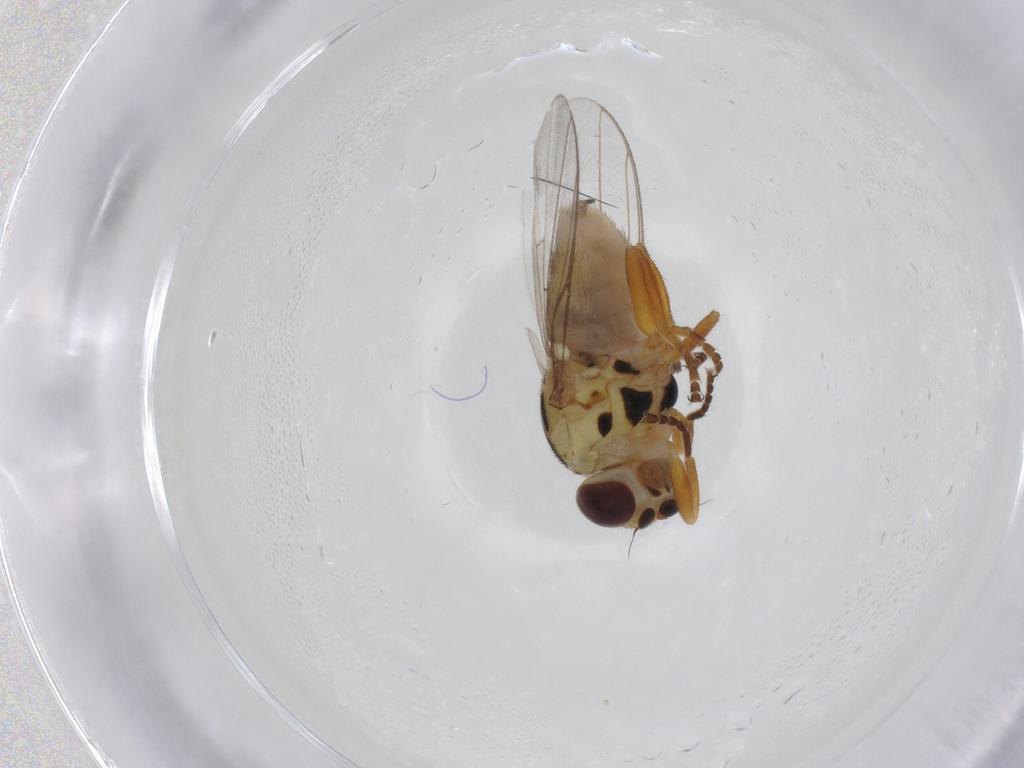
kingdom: Animalia
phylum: Arthropoda
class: Insecta
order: Diptera
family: Chloropidae
